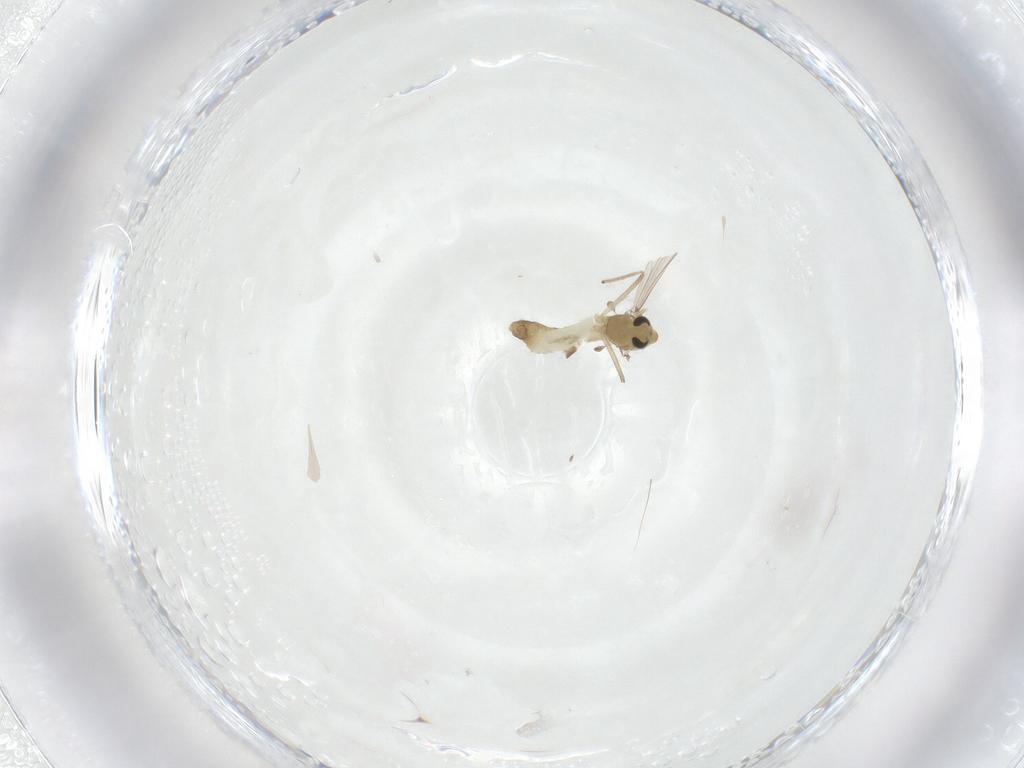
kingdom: Animalia
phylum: Arthropoda
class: Insecta
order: Diptera
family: Chironomidae
